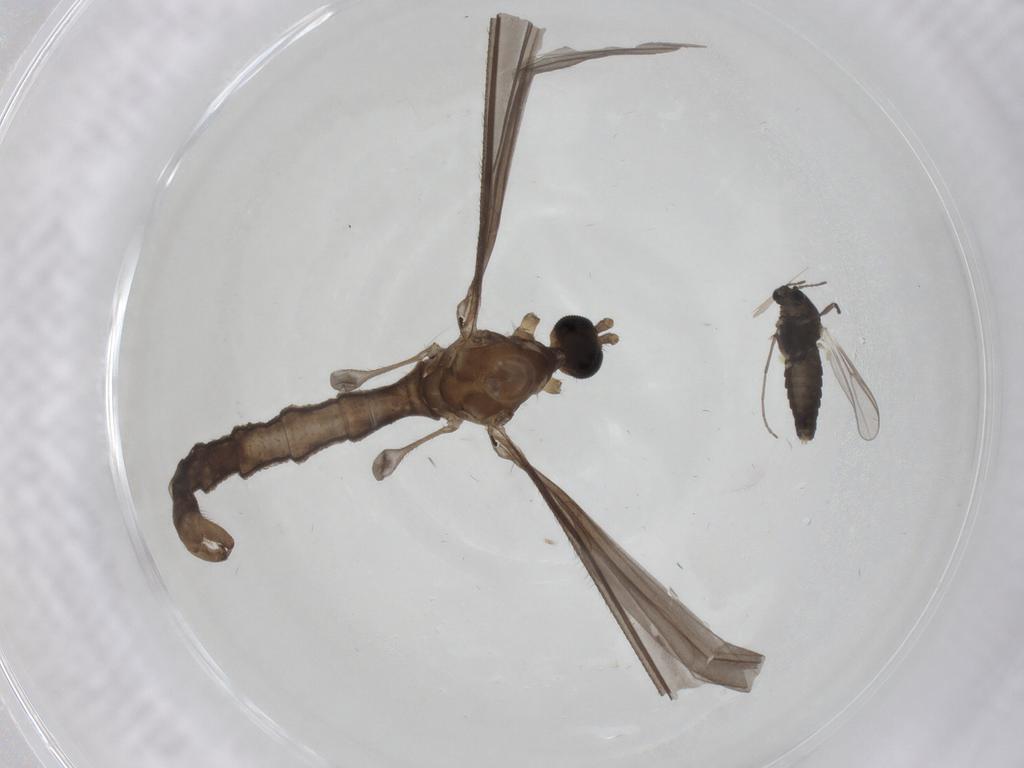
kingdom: Animalia
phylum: Arthropoda
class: Insecta
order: Diptera
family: Chironomidae
